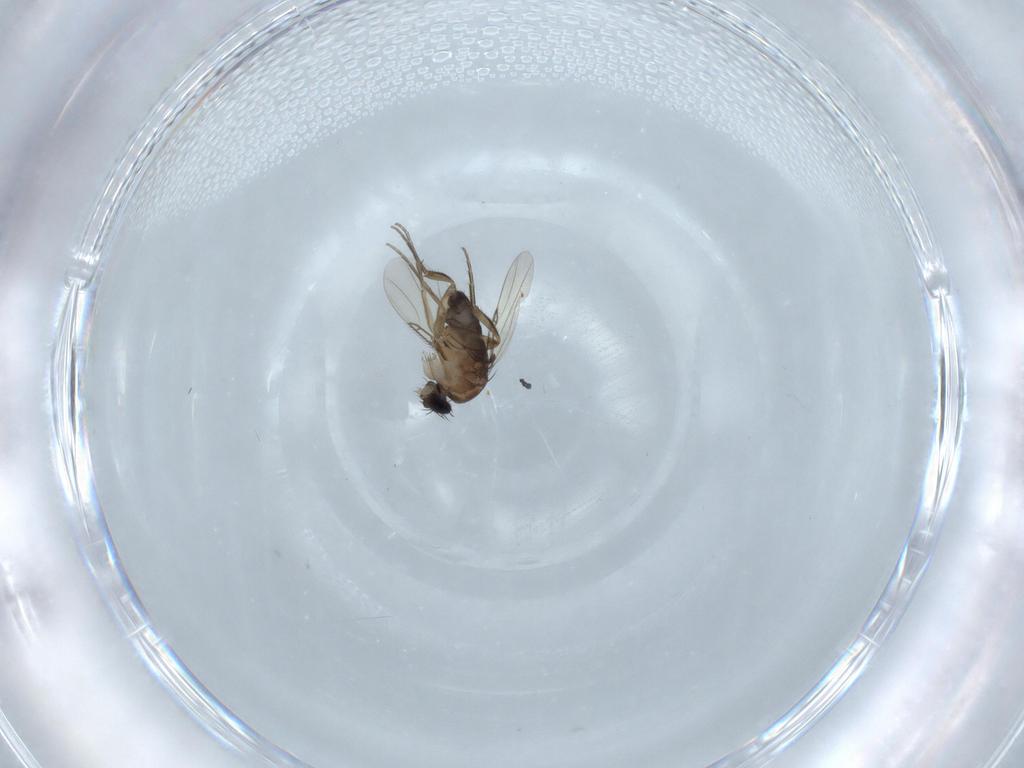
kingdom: Animalia
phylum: Arthropoda
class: Insecta
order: Diptera
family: Phoridae
